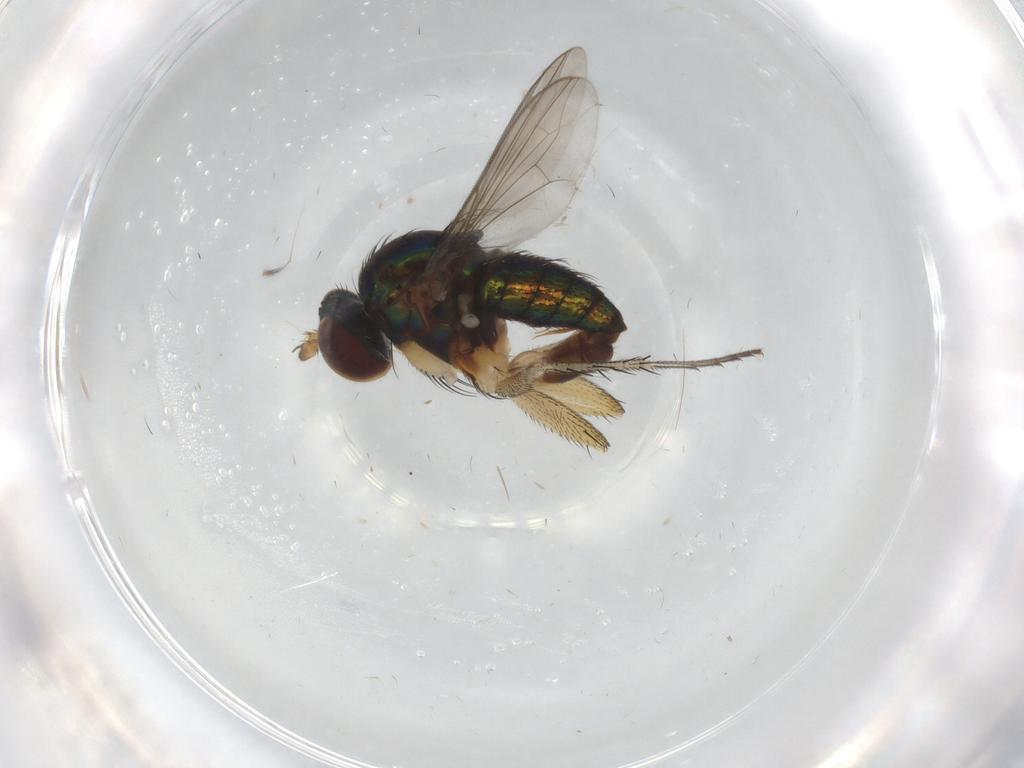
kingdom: Animalia
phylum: Arthropoda
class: Insecta
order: Diptera
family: Dolichopodidae
